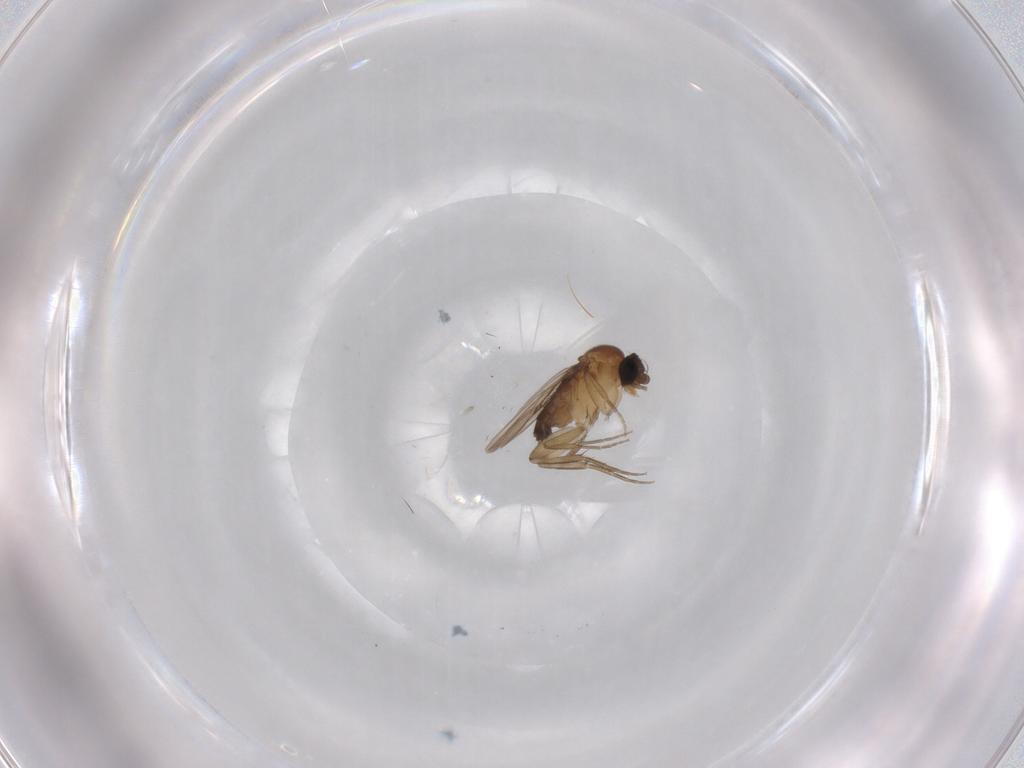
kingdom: Animalia
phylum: Arthropoda
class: Insecta
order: Diptera
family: Phoridae
